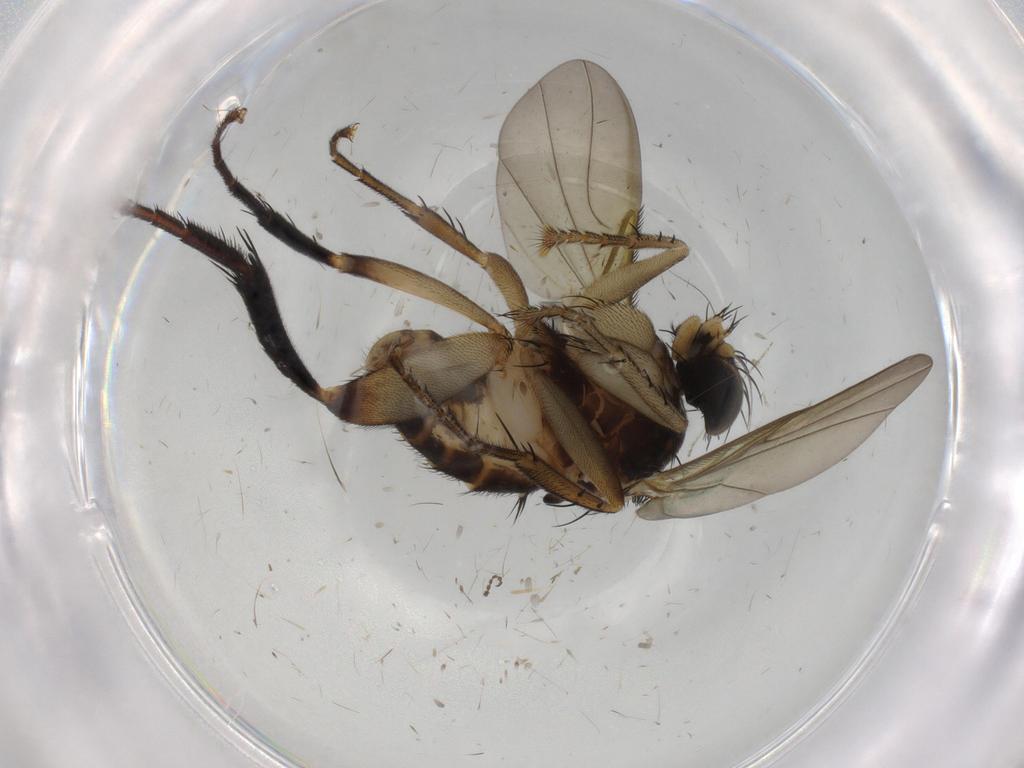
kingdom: Animalia
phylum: Arthropoda
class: Insecta
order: Diptera
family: Phoridae
